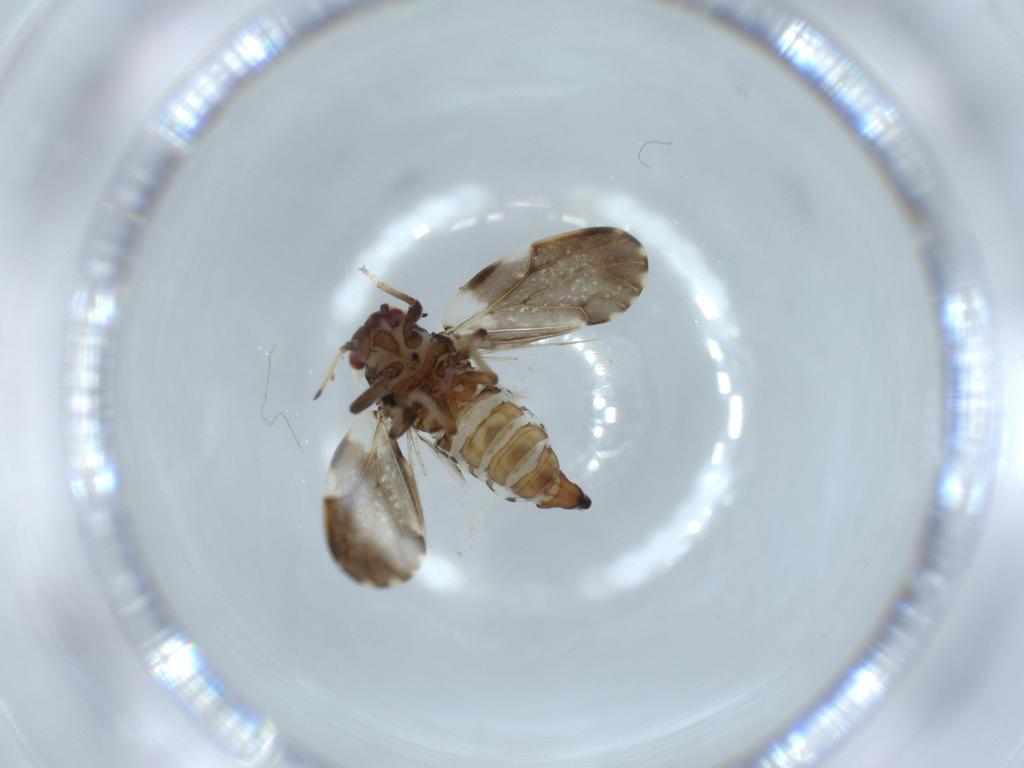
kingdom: Animalia
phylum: Arthropoda
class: Insecta
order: Hemiptera
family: Psylloidea_incertae_sedis
